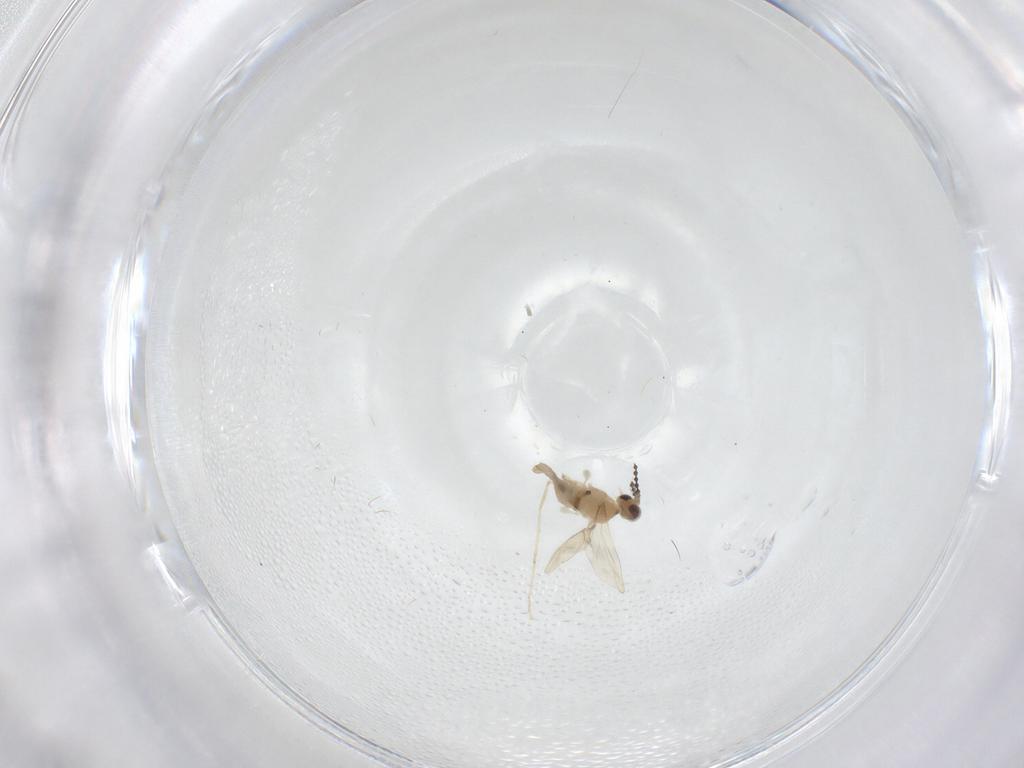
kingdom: Animalia
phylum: Arthropoda
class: Insecta
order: Diptera
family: Cecidomyiidae
